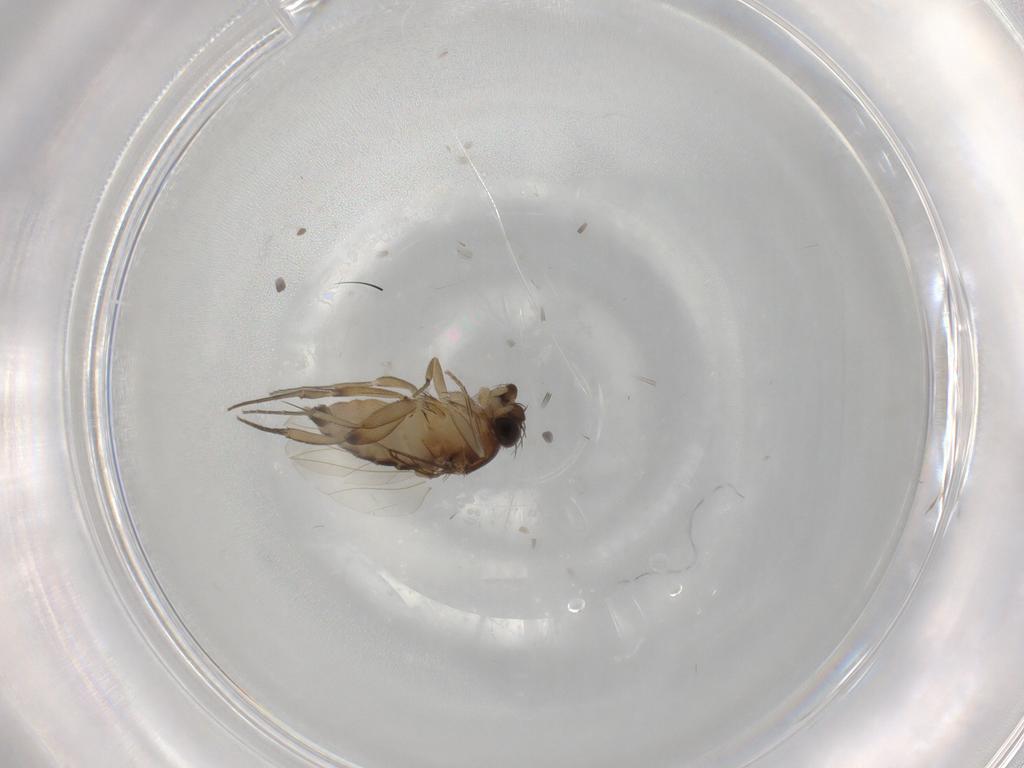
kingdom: Animalia
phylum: Arthropoda
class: Insecta
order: Diptera
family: Phoridae
